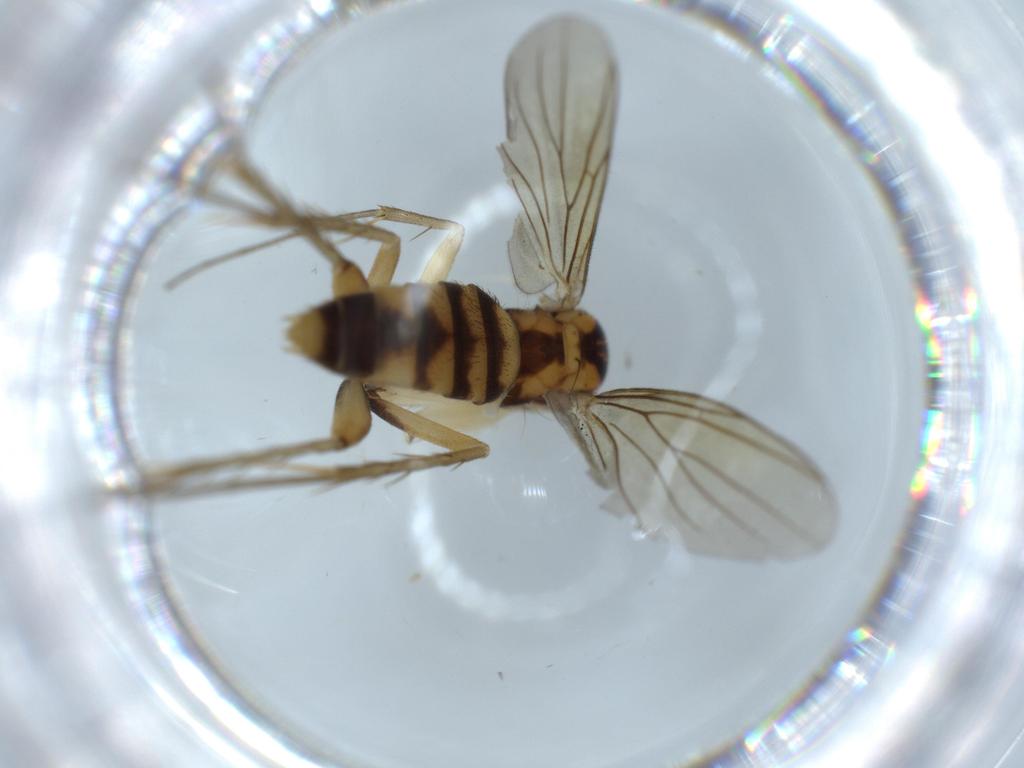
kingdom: Animalia
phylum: Arthropoda
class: Insecta
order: Diptera
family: Mycetophilidae
